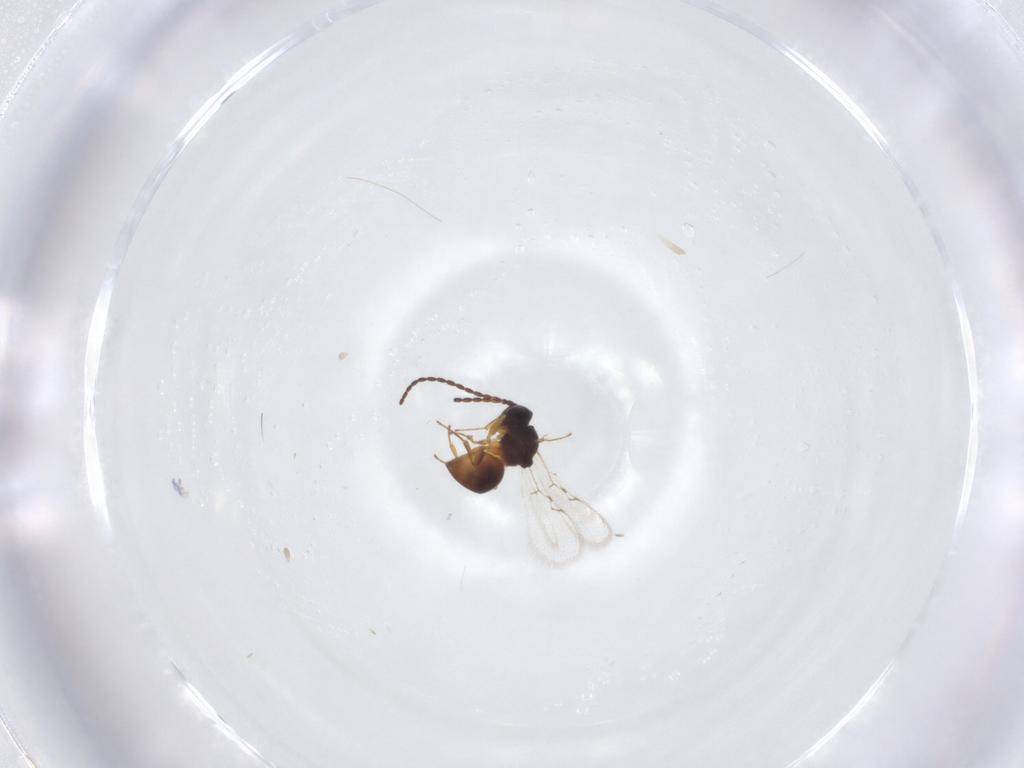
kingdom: Animalia
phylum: Arthropoda
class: Insecta
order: Hymenoptera
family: Figitidae
